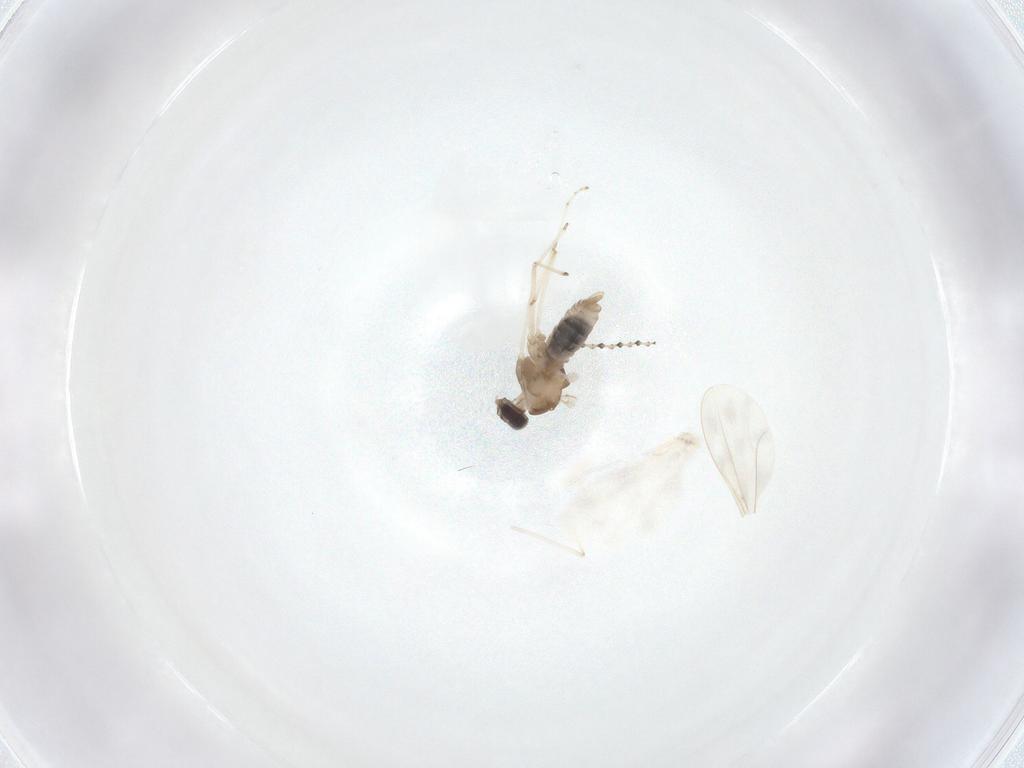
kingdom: Animalia
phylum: Arthropoda
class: Insecta
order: Diptera
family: Cecidomyiidae
